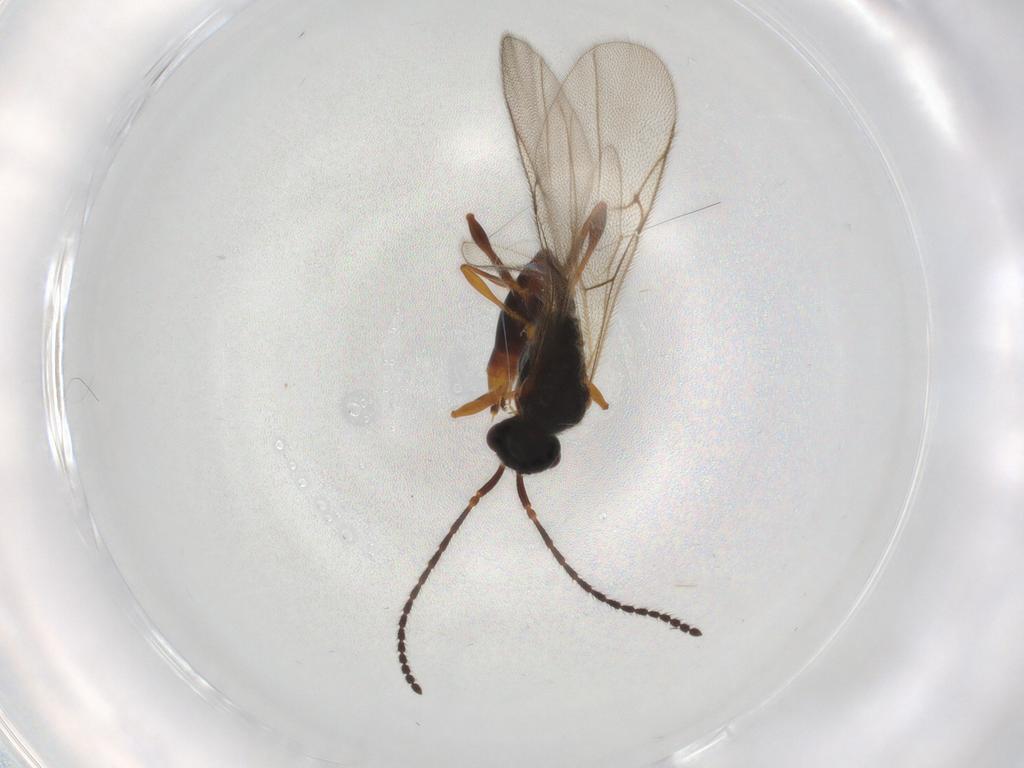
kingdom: Animalia
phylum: Arthropoda
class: Insecta
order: Hymenoptera
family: Diapriidae
